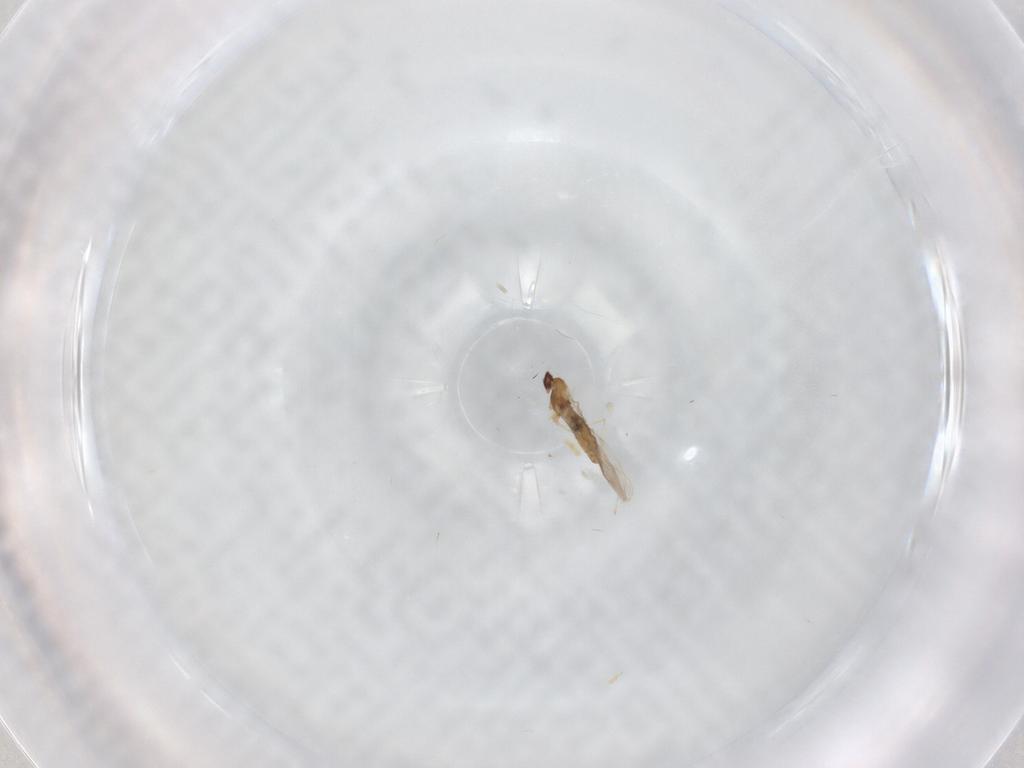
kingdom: Animalia
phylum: Arthropoda
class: Insecta
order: Diptera
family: Cecidomyiidae
